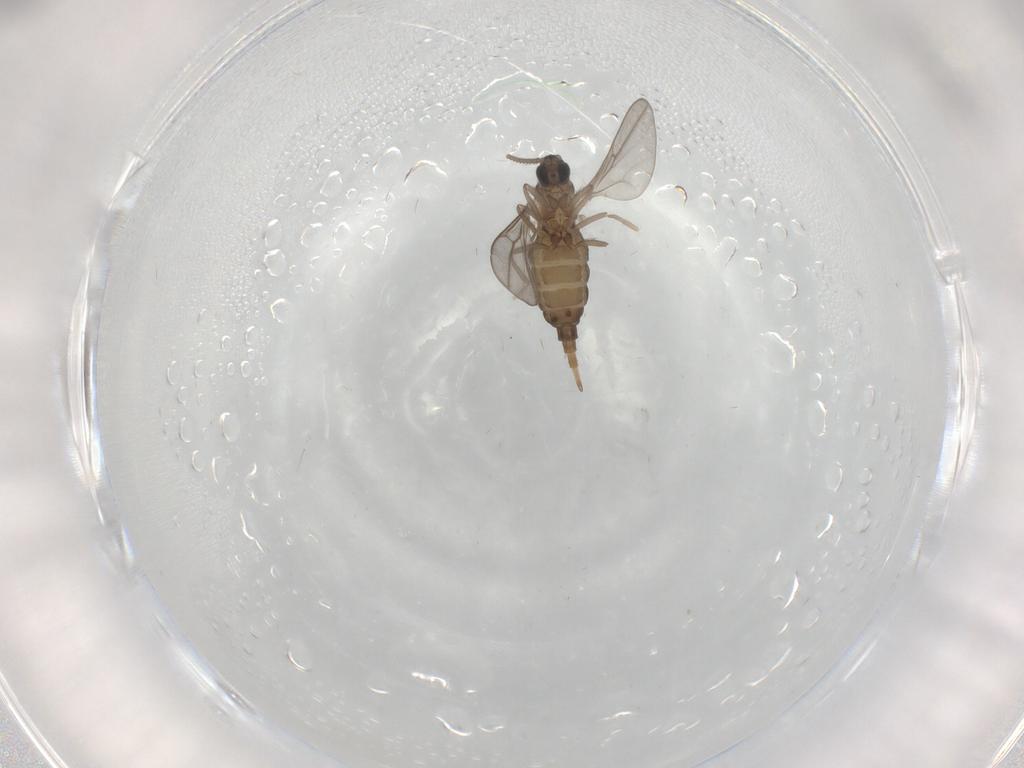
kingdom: Animalia
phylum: Arthropoda
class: Insecta
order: Diptera
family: Cecidomyiidae
